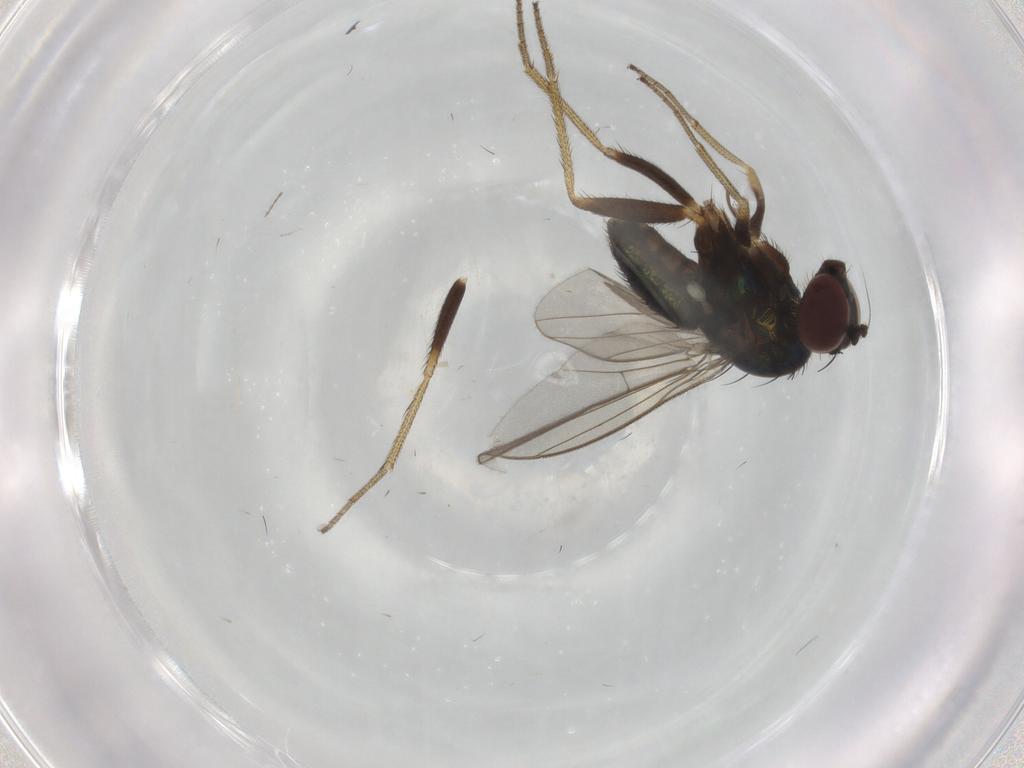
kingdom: Animalia
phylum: Arthropoda
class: Insecta
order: Diptera
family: Dolichopodidae
